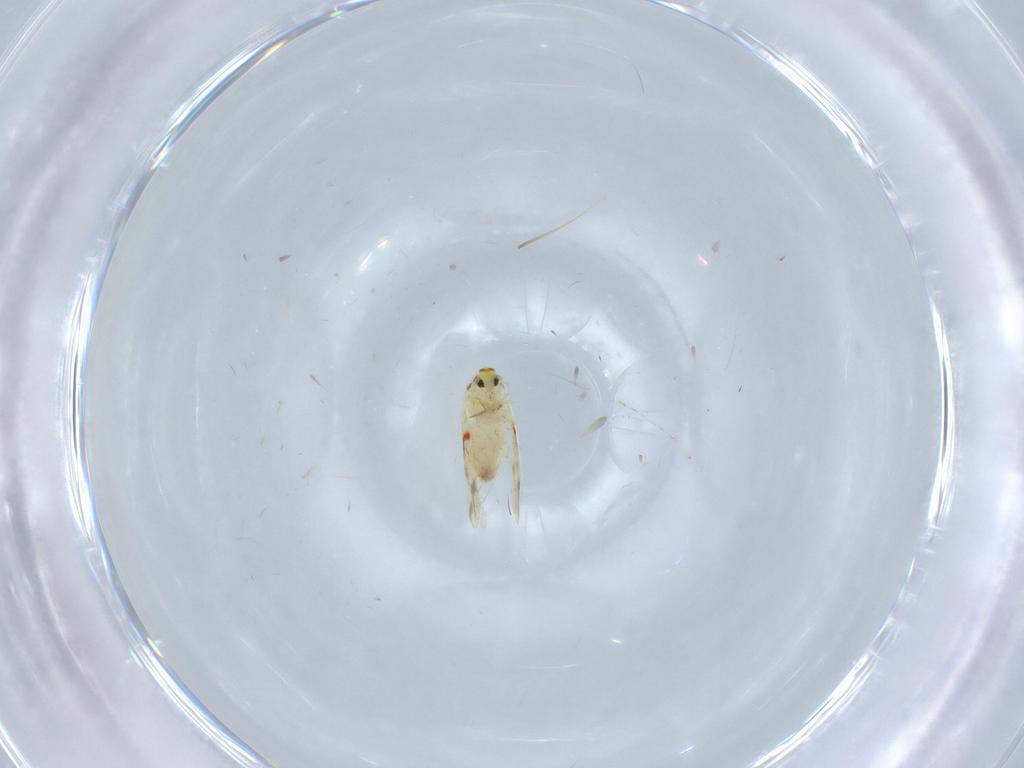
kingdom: Animalia
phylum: Arthropoda
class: Insecta
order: Hemiptera
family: Aleyrodidae
